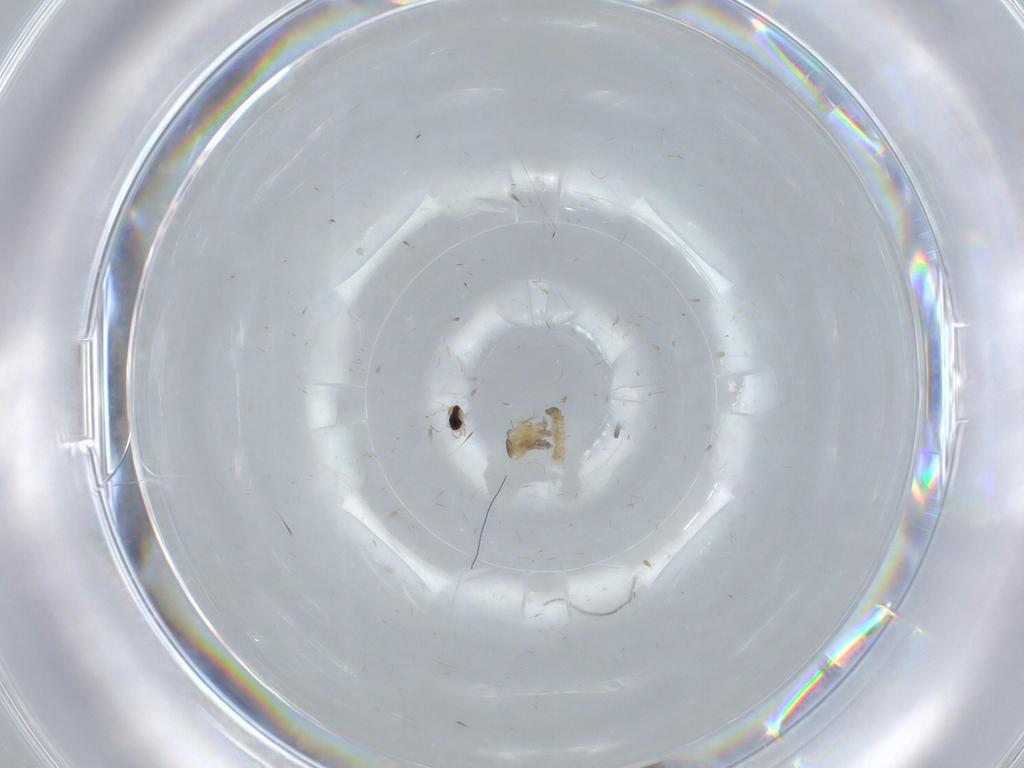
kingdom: Animalia
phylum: Arthropoda
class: Insecta
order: Diptera
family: Cecidomyiidae
